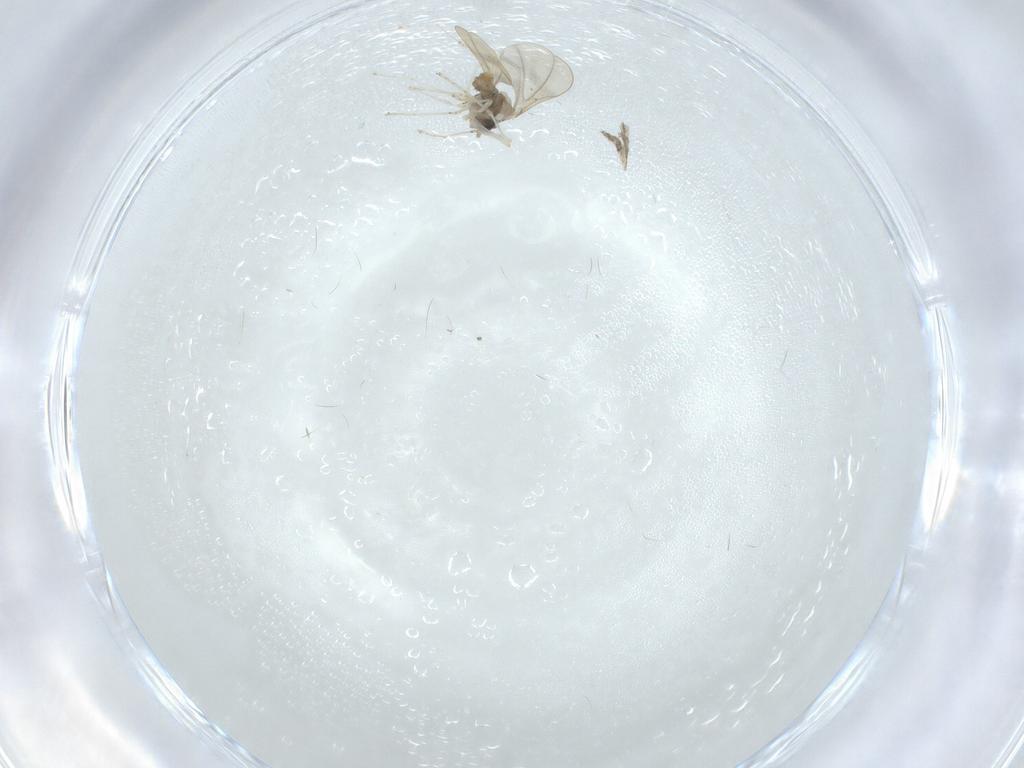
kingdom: Animalia
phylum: Arthropoda
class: Insecta
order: Diptera
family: Cecidomyiidae
